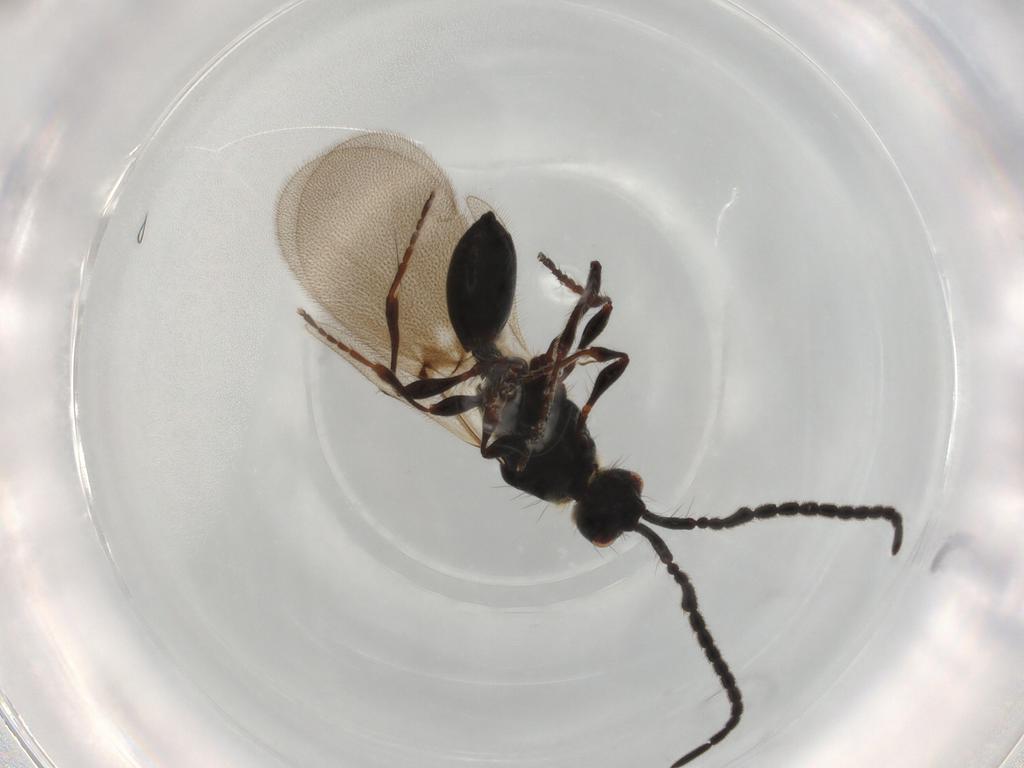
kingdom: Animalia
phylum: Arthropoda
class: Insecta
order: Hymenoptera
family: Diapriidae
